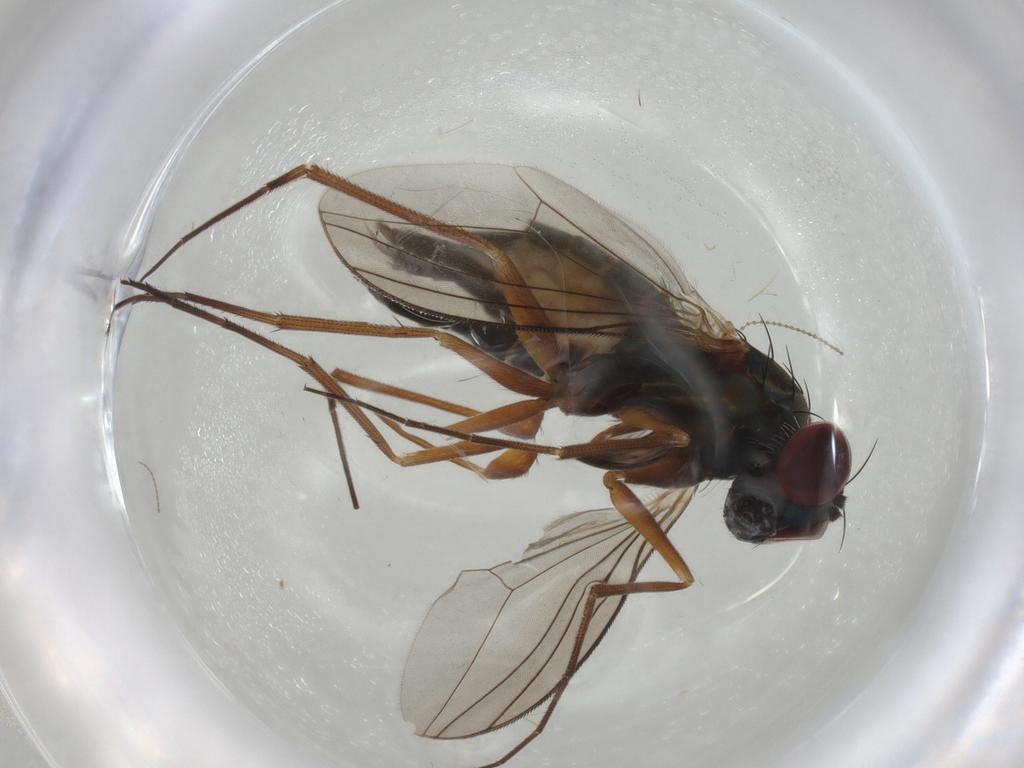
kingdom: Animalia
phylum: Arthropoda
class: Insecta
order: Diptera
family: Dolichopodidae
